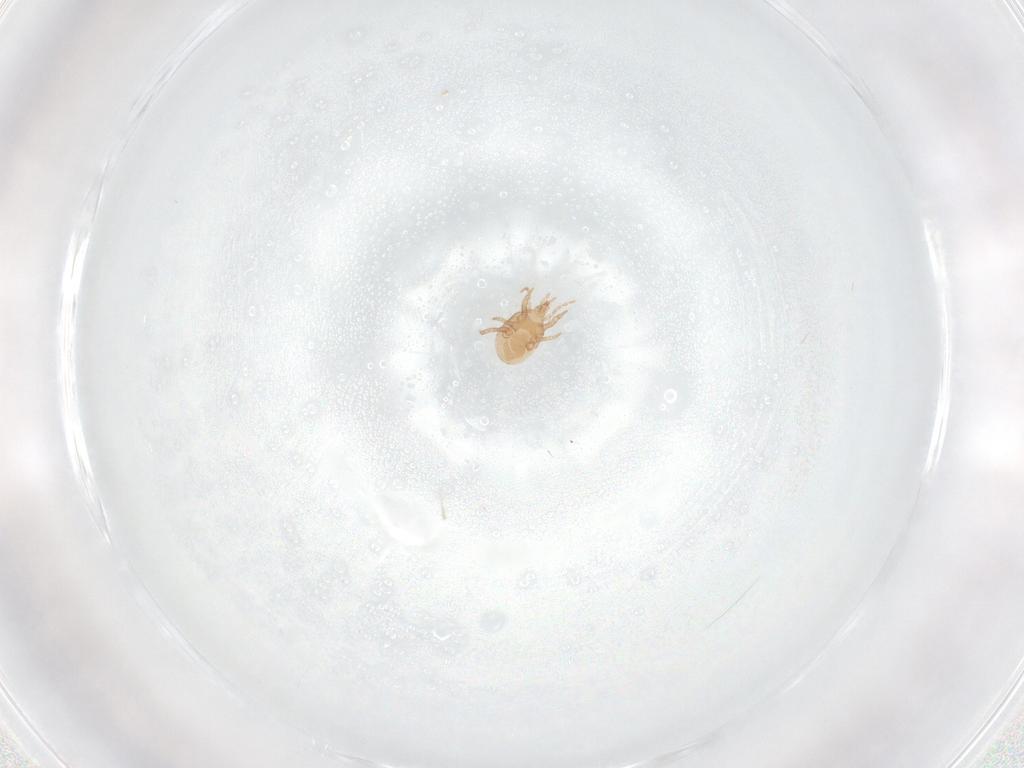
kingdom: Animalia
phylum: Arthropoda
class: Arachnida
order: Mesostigmata
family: Macrochelidae
